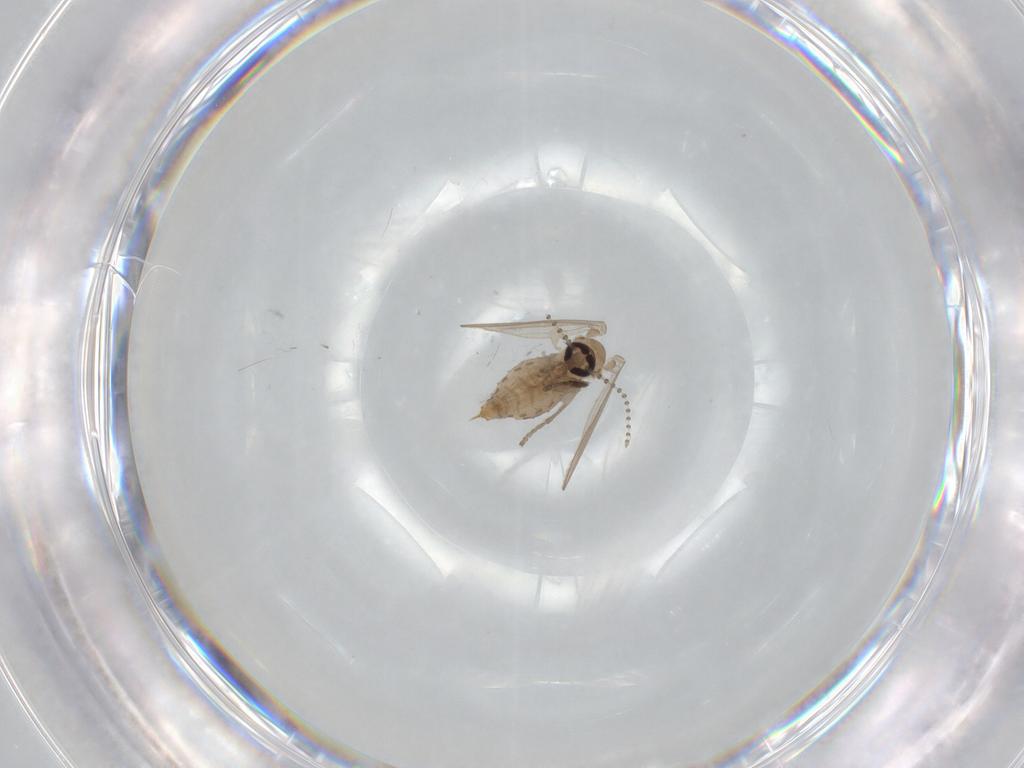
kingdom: Animalia
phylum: Arthropoda
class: Insecta
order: Diptera
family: Psychodidae
